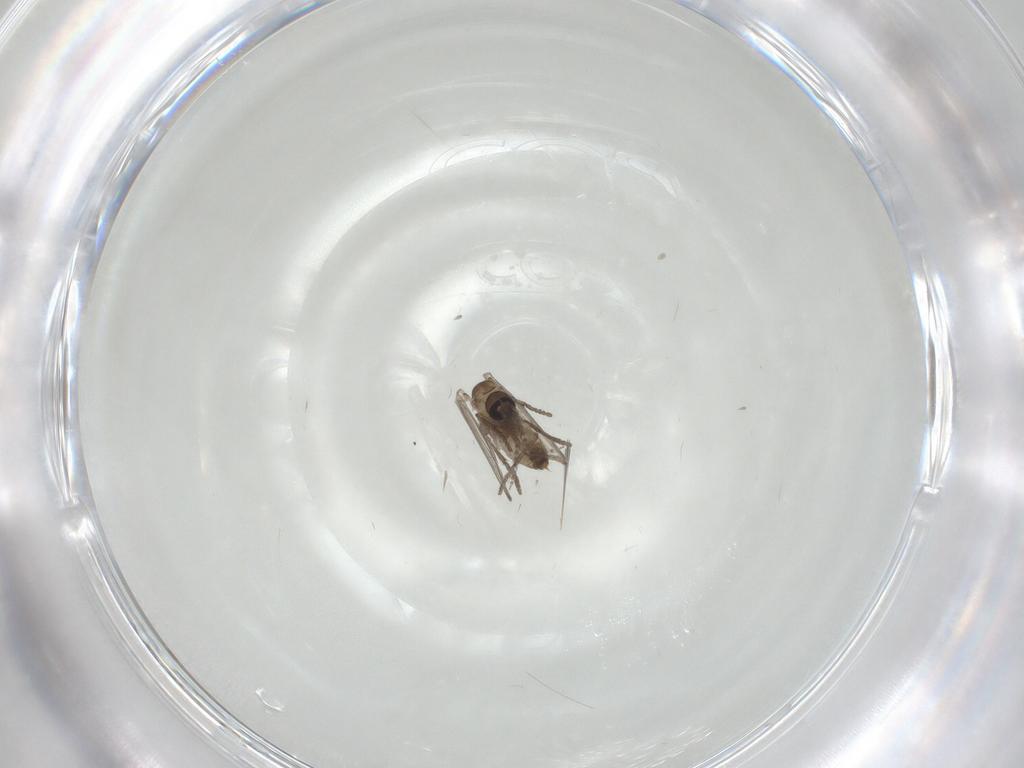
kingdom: Animalia
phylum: Arthropoda
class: Insecta
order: Diptera
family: Psychodidae
